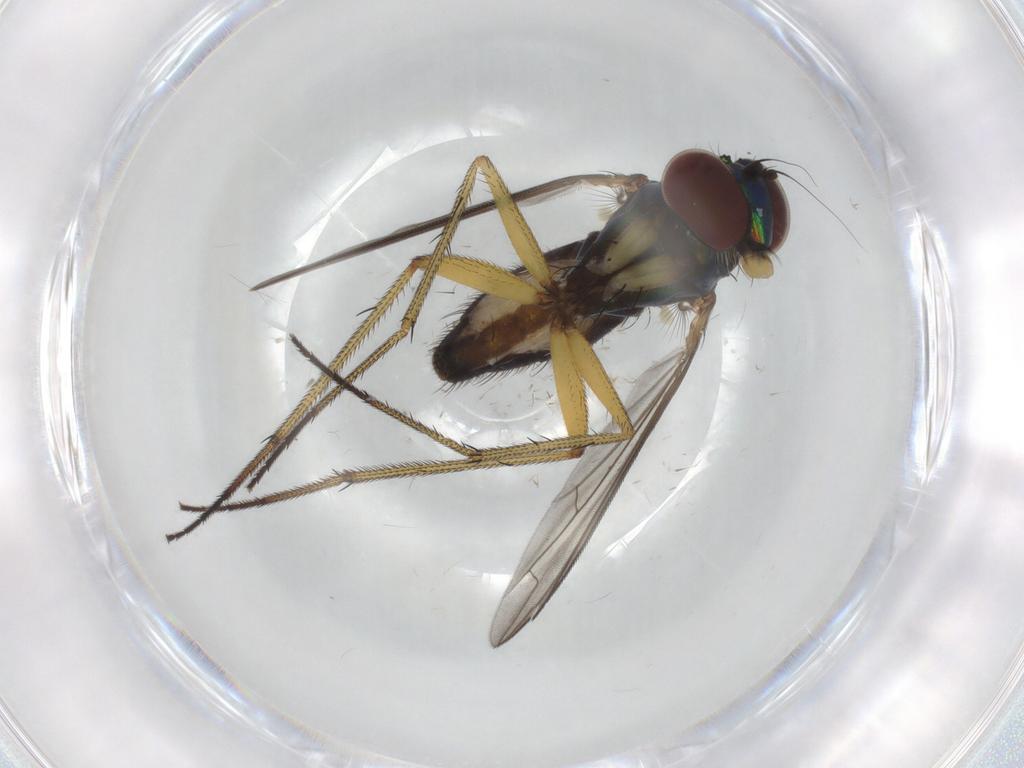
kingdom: Animalia
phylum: Arthropoda
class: Insecta
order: Diptera
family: Dolichopodidae
